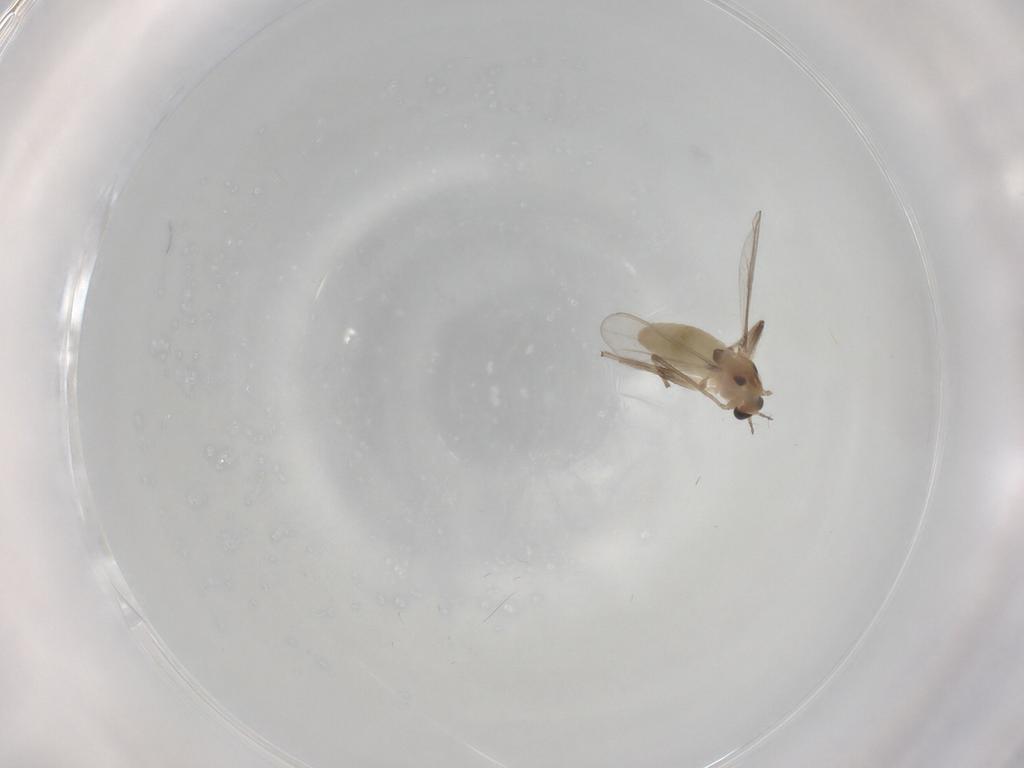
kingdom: Animalia
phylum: Arthropoda
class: Insecta
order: Diptera
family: Chironomidae
